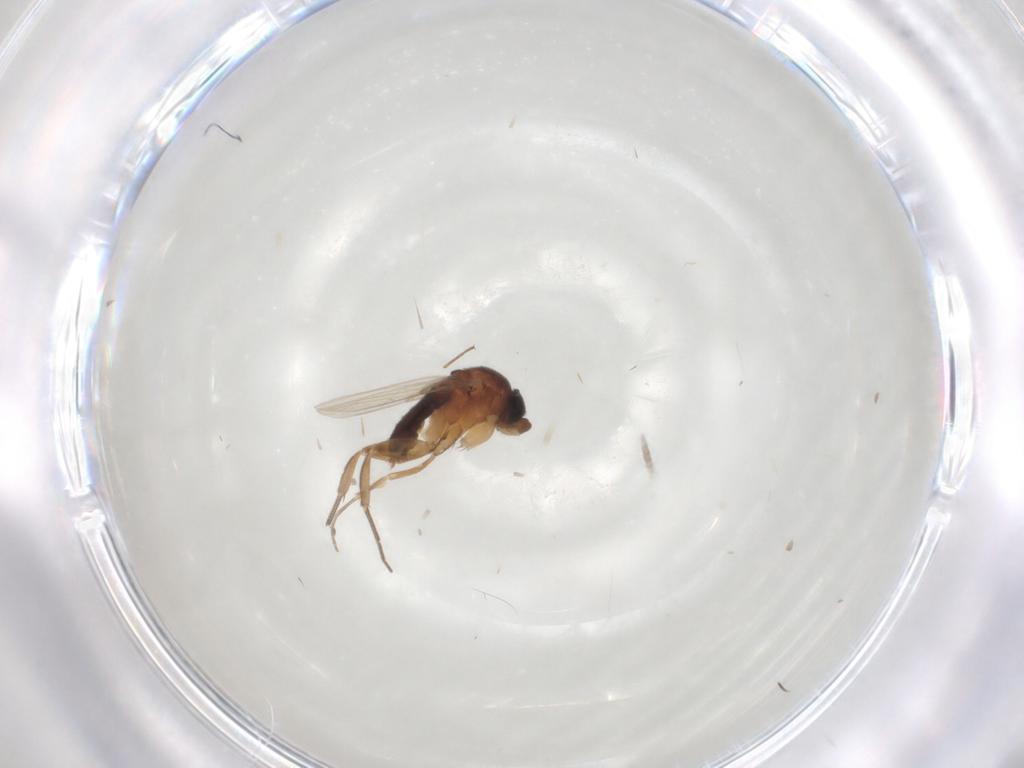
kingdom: Animalia
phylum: Arthropoda
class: Insecta
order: Diptera
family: Phoridae
